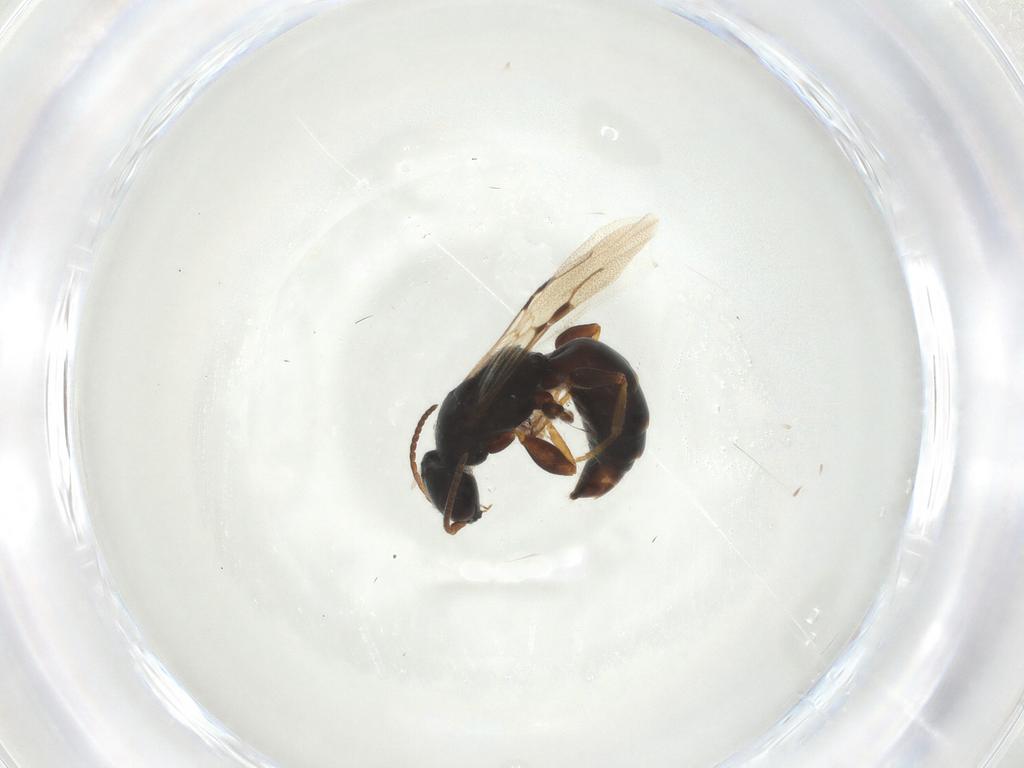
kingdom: Animalia
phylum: Arthropoda
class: Insecta
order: Hymenoptera
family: Bethylidae
